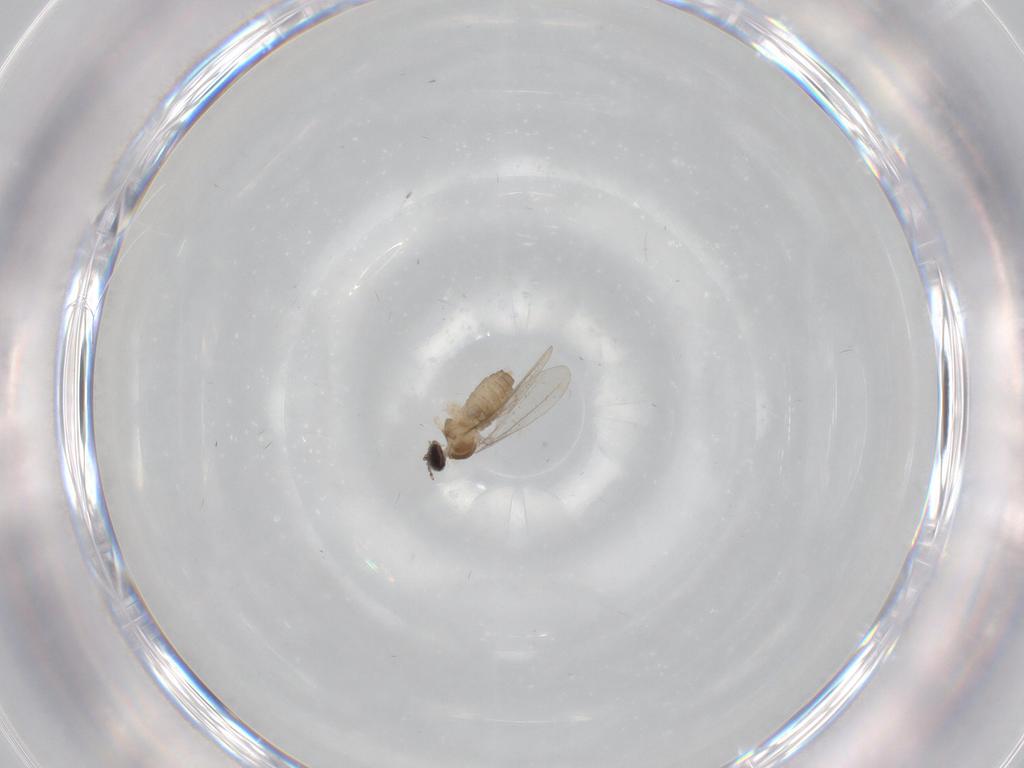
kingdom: Animalia
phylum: Arthropoda
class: Insecta
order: Diptera
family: Cecidomyiidae
